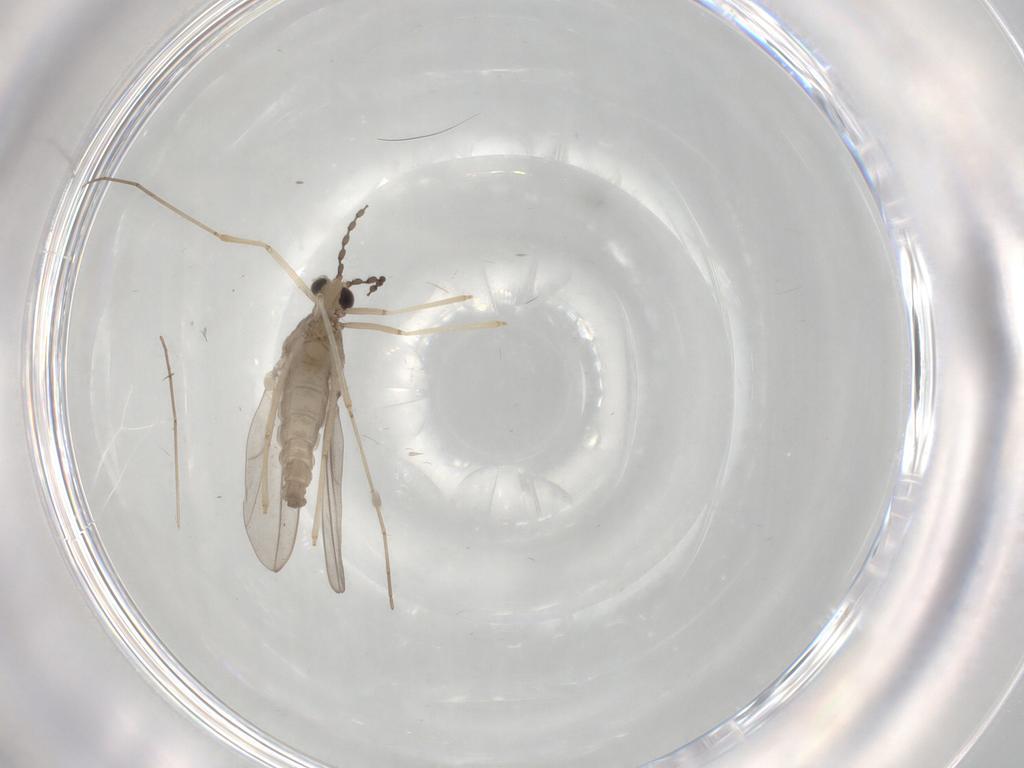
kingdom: Animalia
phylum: Arthropoda
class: Insecta
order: Diptera
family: Cecidomyiidae
